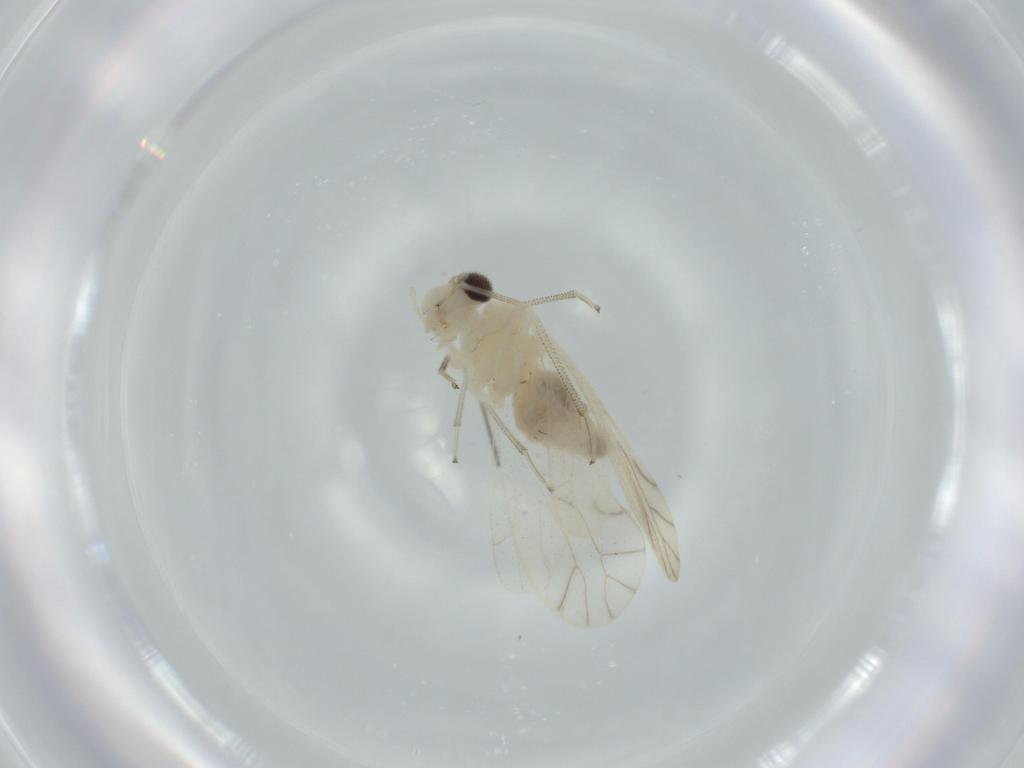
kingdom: Animalia
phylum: Arthropoda
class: Insecta
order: Psocodea
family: Caeciliusidae
